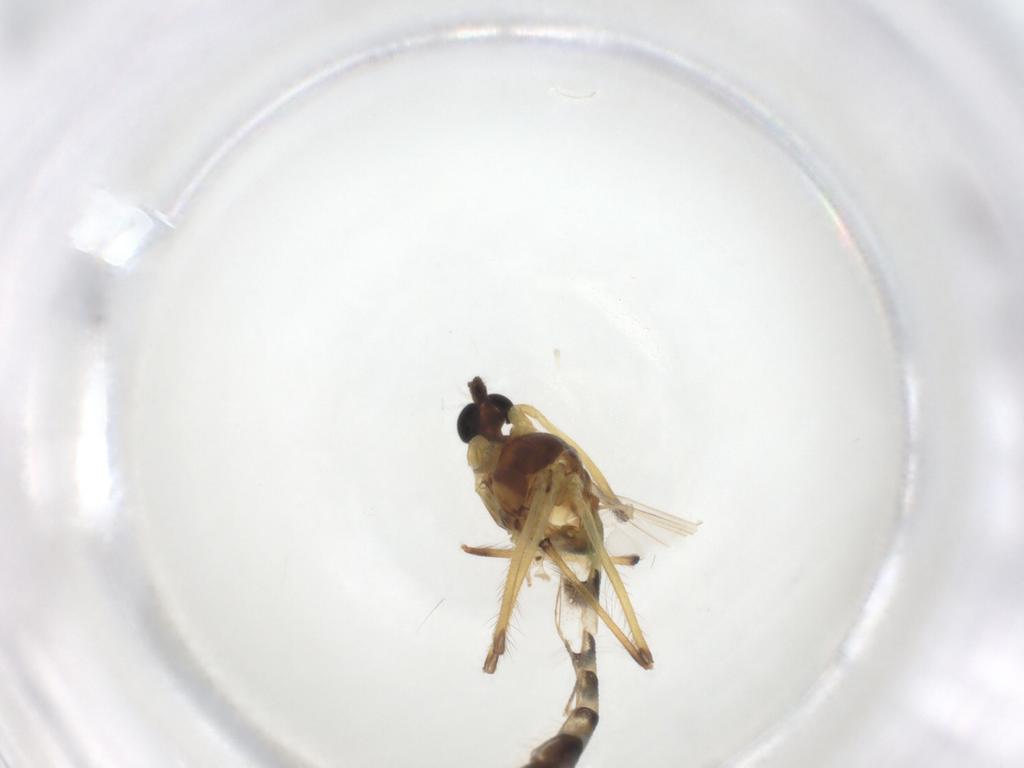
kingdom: Animalia
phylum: Arthropoda
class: Insecta
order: Diptera
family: Chironomidae
